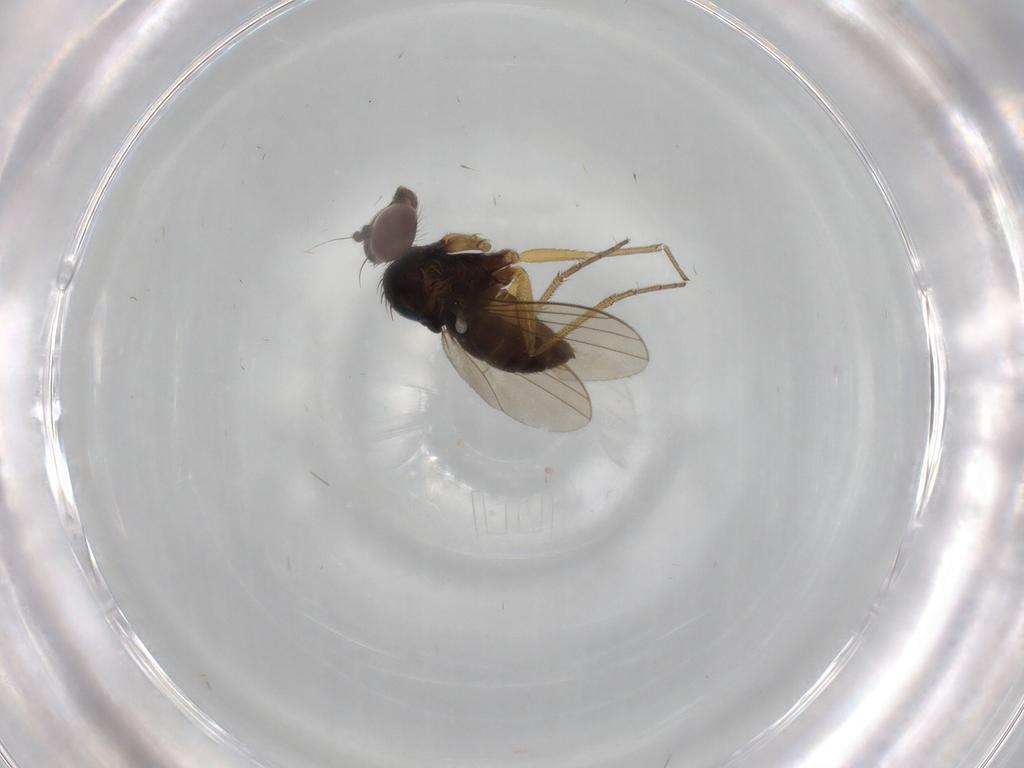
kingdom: Animalia
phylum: Arthropoda
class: Insecta
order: Diptera
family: Dolichopodidae
